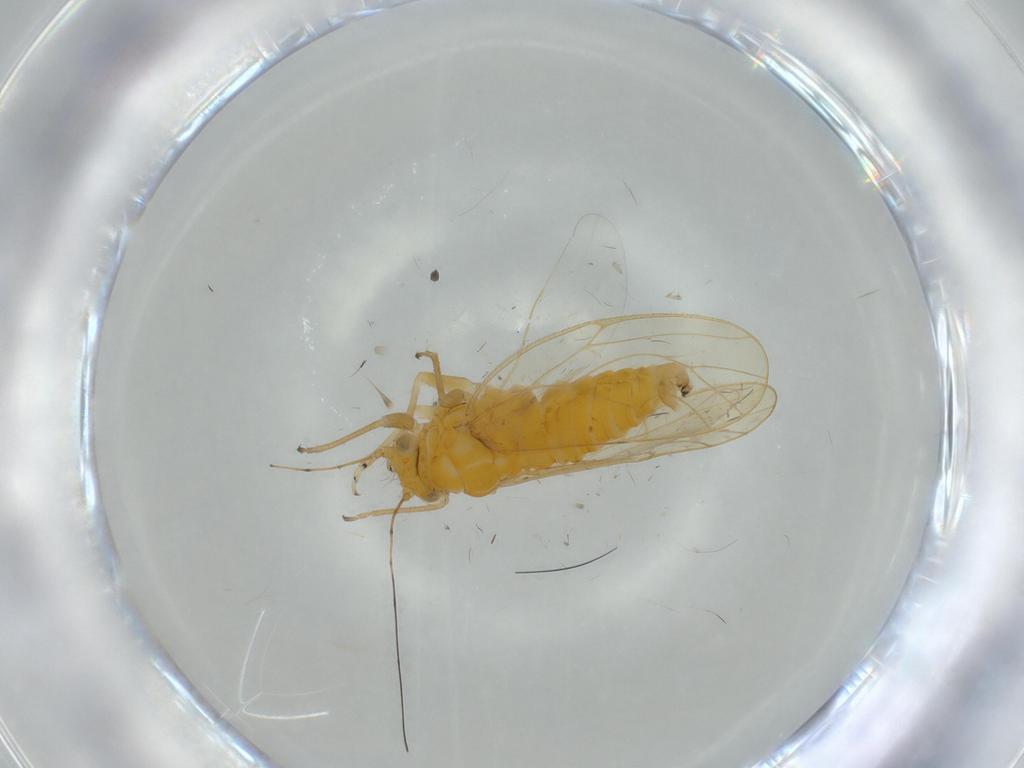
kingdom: Animalia
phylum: Arthropoda
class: Insecta
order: Hemiptera
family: Psyllidae
